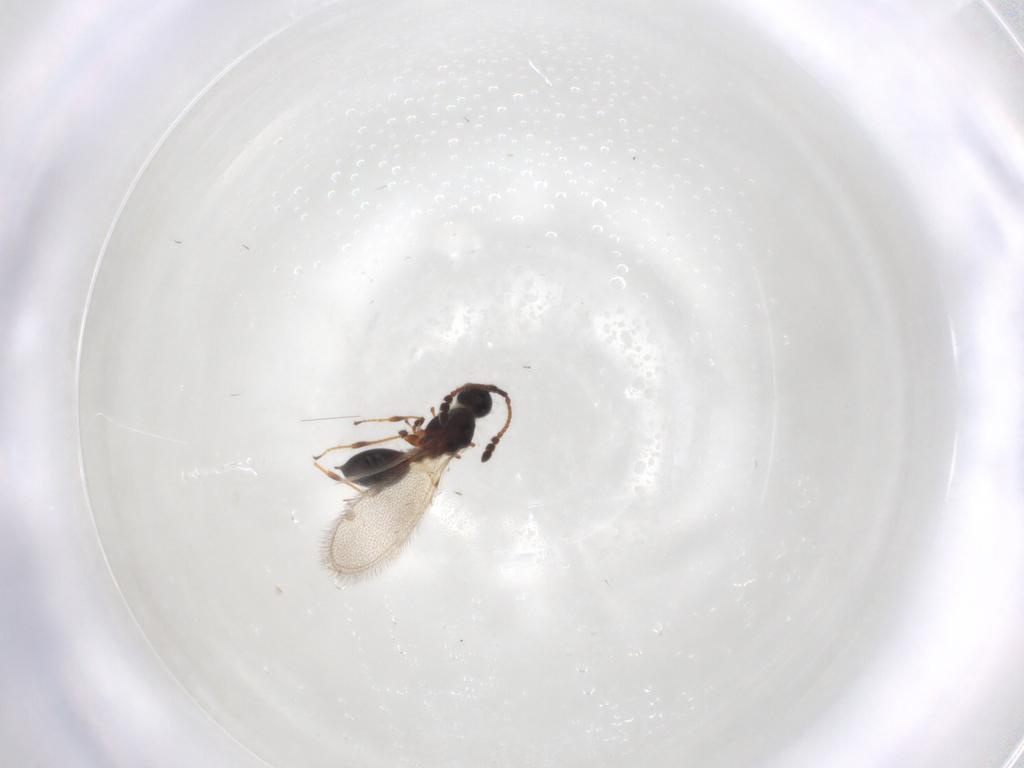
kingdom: Animalia
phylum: Arthropoda
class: Insecta
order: Hymenoptera
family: Diapriidae
